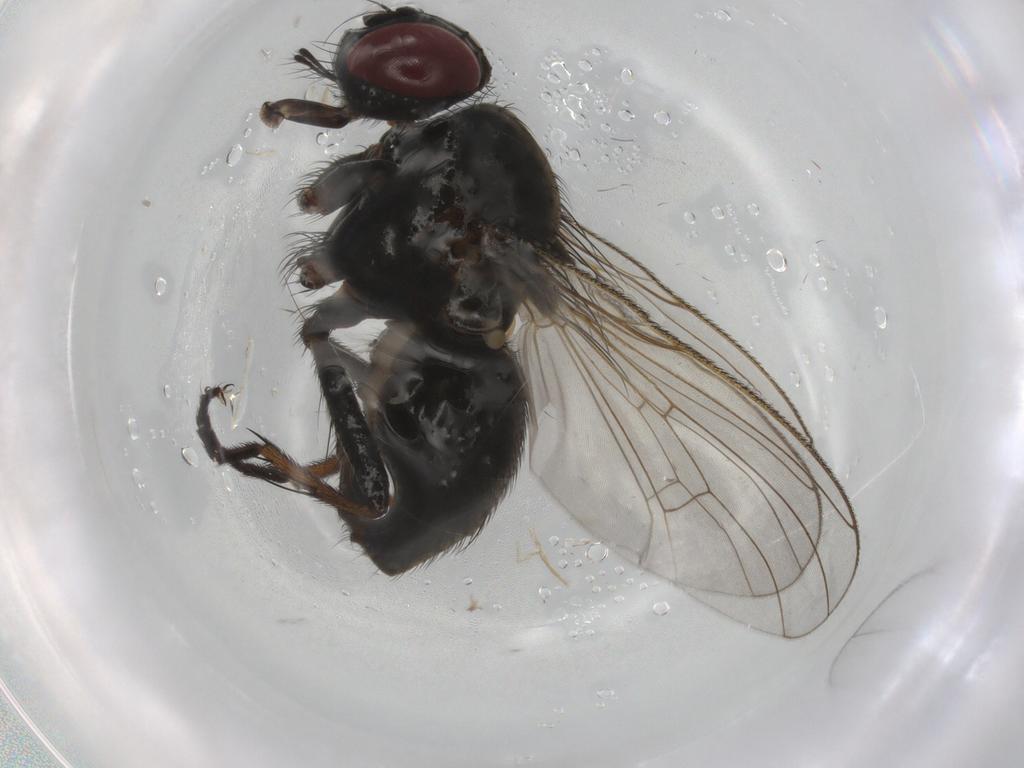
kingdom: Animalia
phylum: Arthropoda
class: Insecta
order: Diptera
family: Muscidae
